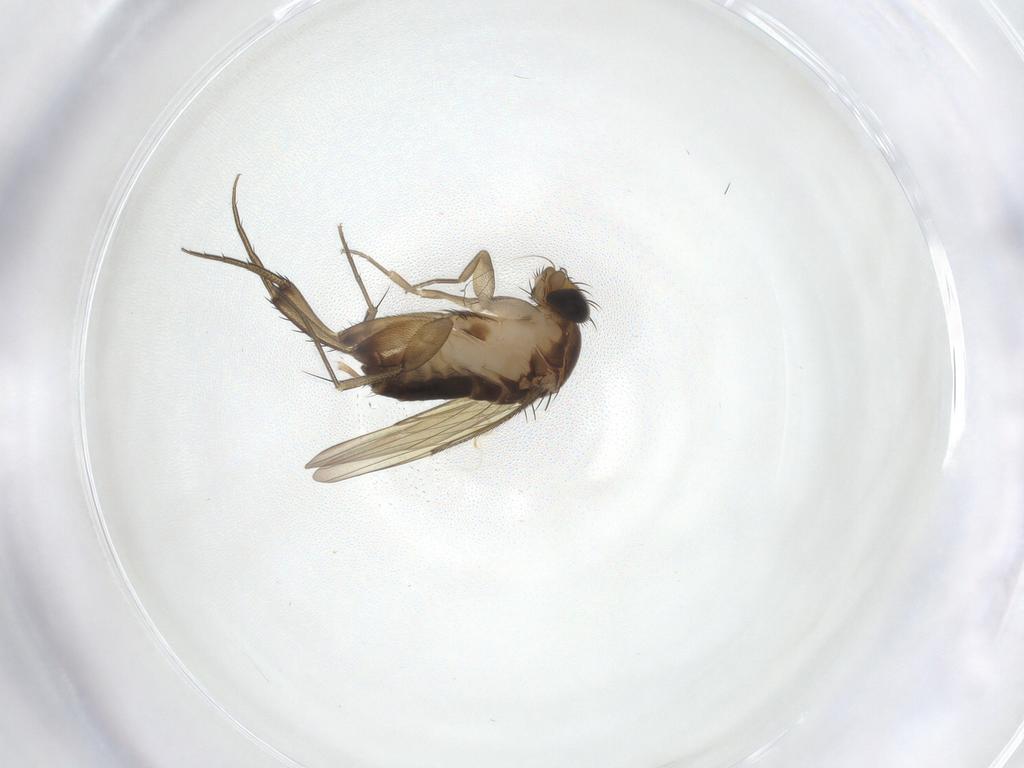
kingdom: Animalia
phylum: Arthropoda
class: Insecta
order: Diptera
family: Phoridae
